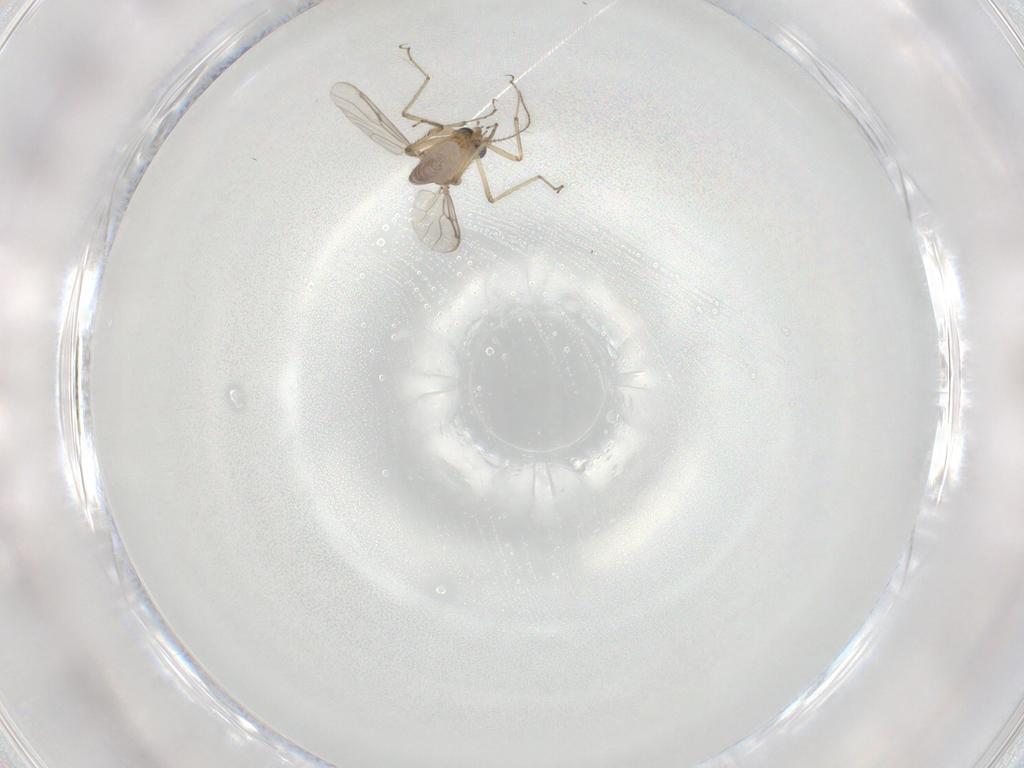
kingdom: Animalia
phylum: Arthropoda
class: Insecta
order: Diptera
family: Ceratopogonidae
